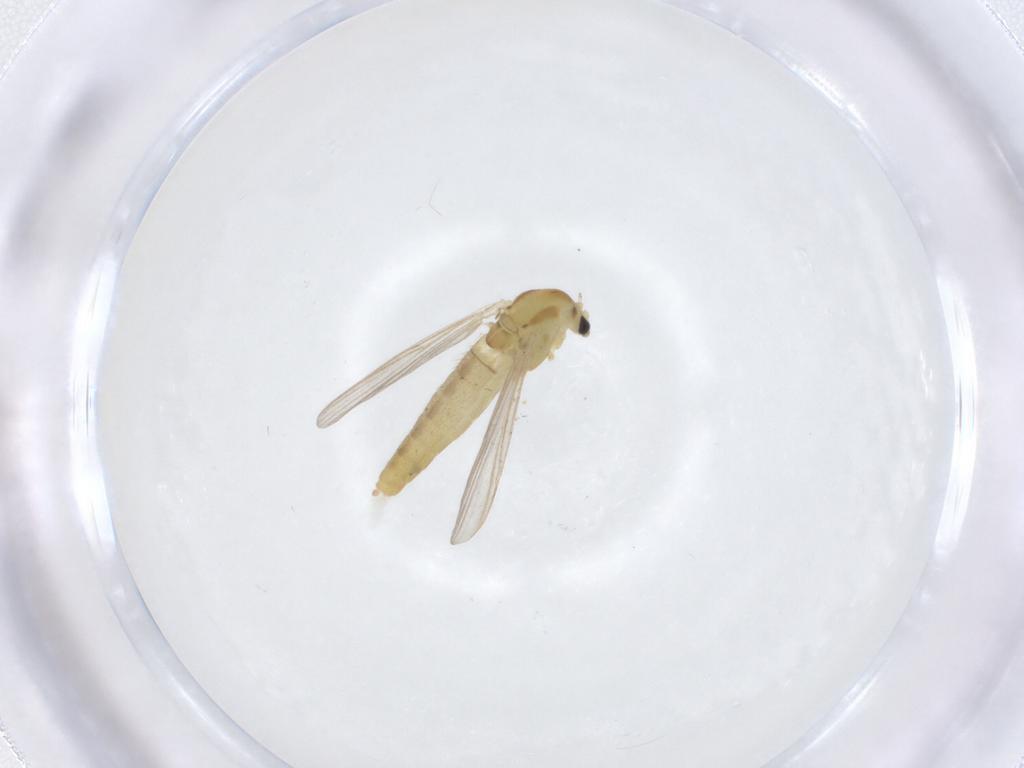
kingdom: Animalia
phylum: Arthropoda
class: Insecta
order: Diptera
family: Chironomidae
